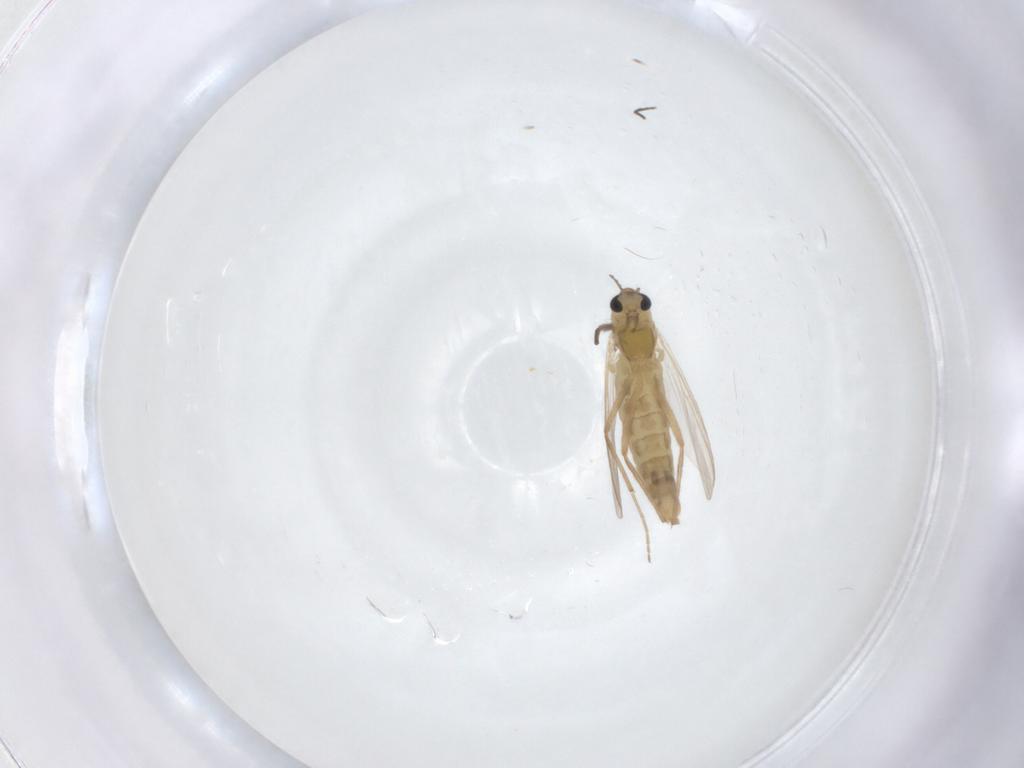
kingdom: Animalia
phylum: Arthropoda
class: Insecta
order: Diptera
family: Chironomidae
